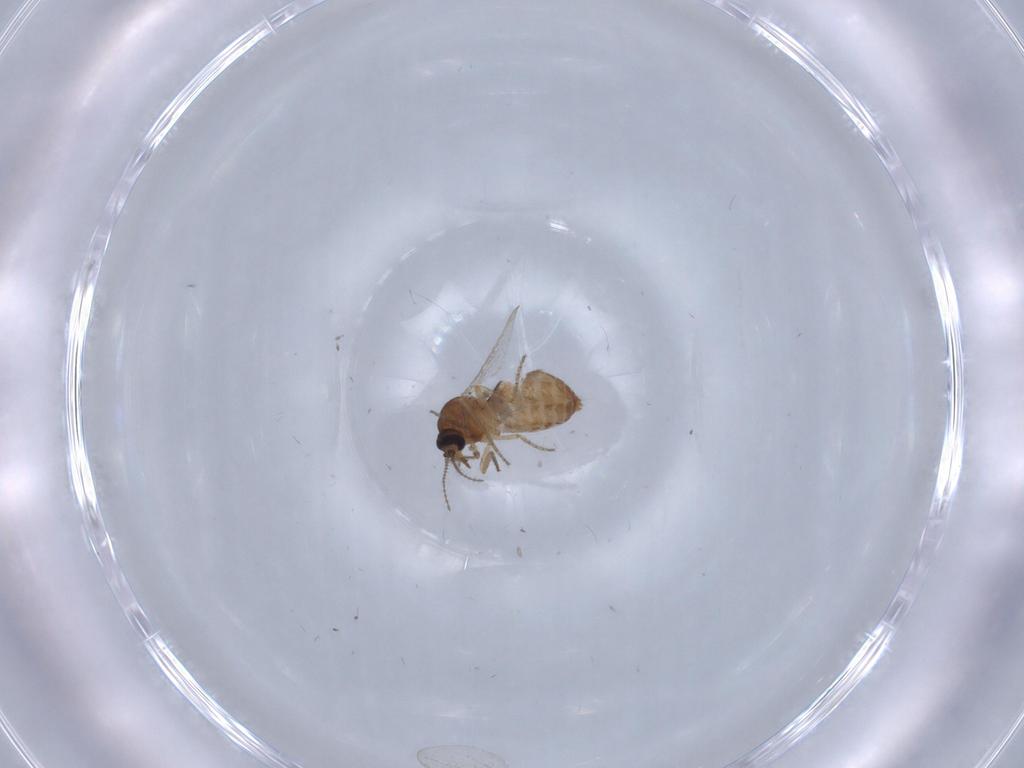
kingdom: Animalia
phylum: Arthropoda
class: Insecta
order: Diptera
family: Ceratopogonidae
